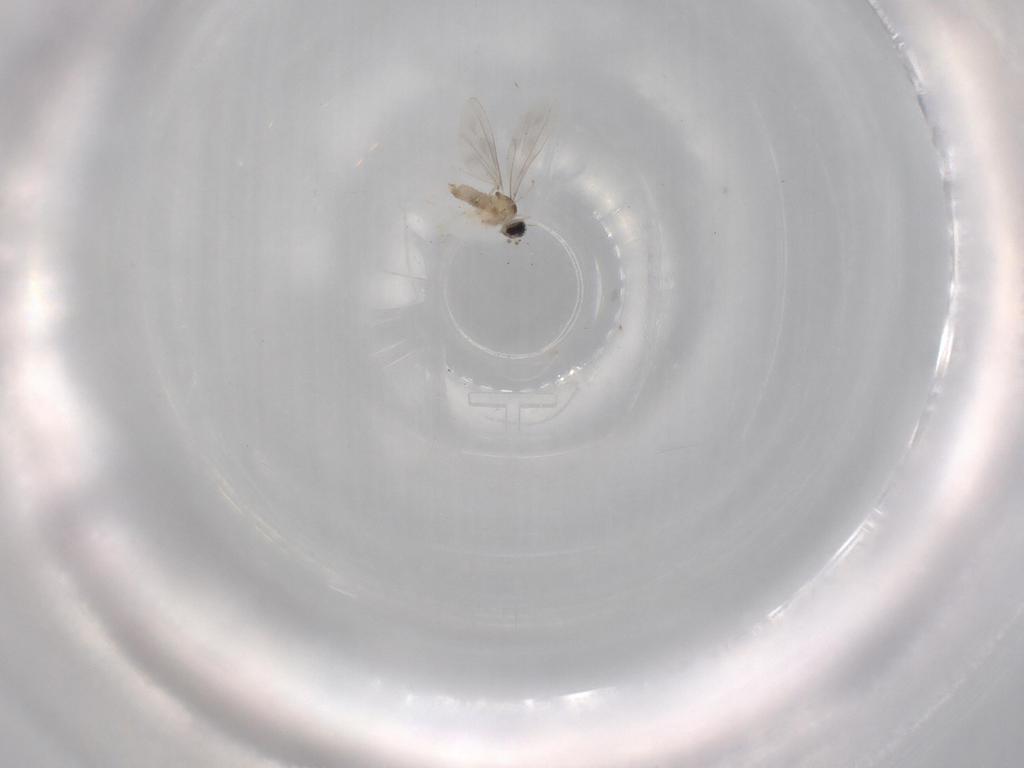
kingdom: Animalia
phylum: Arthropoda
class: Insecta
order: Diptera
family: Cecidomyiidae
